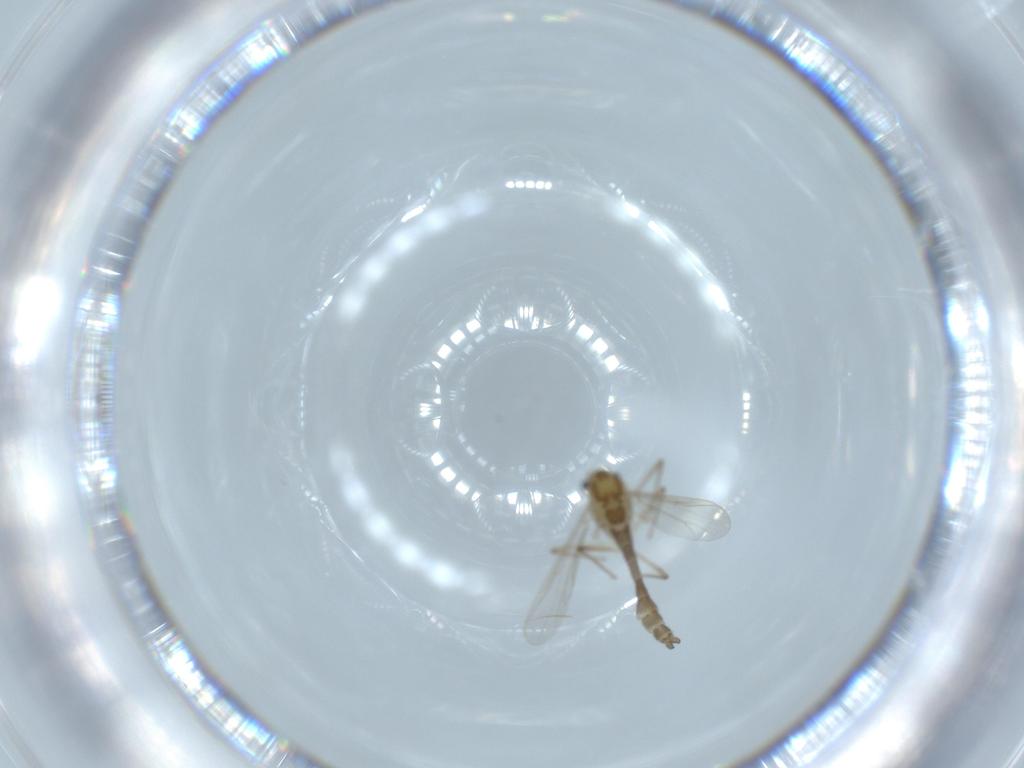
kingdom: Animalia
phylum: Arthropoda
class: Insecta
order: Diptera
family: Chironomidae
